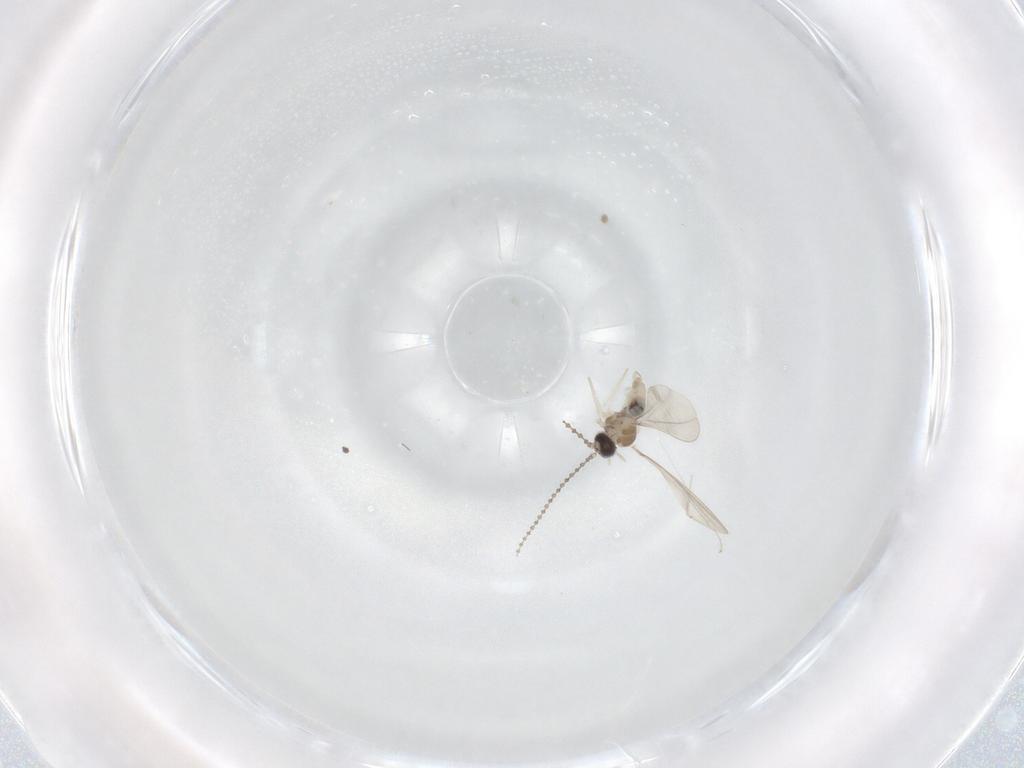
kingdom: Animalia
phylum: Arthropoda
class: Insecta
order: Diptera
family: Cecidomyiidae
